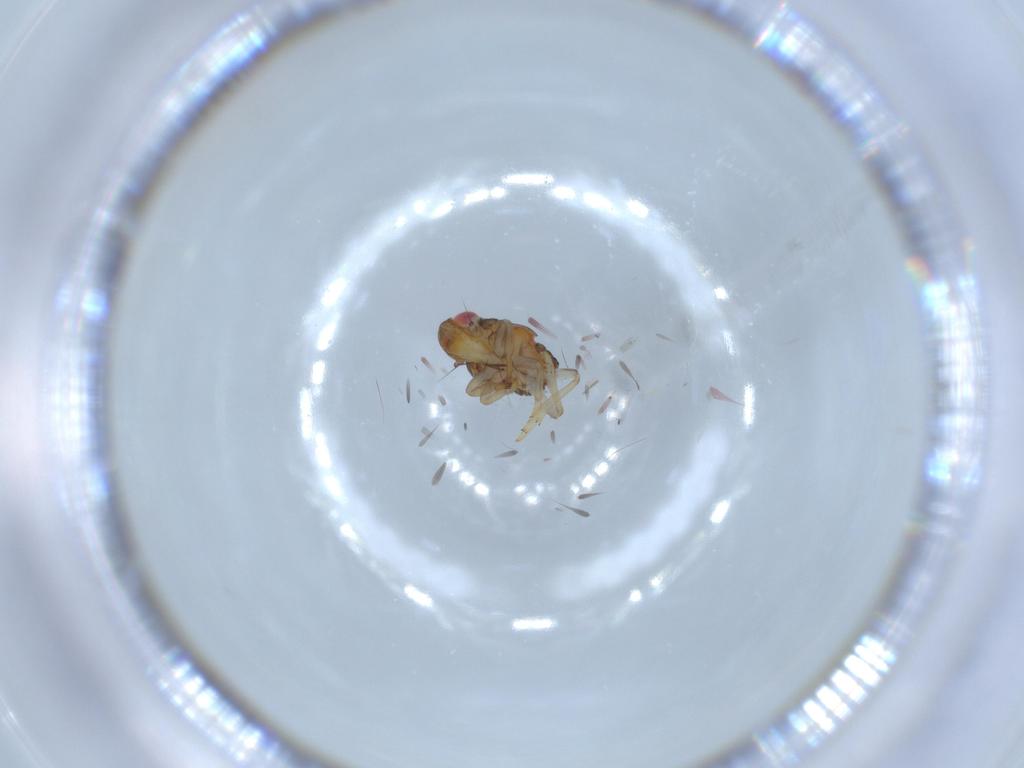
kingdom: Animalia
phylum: Arthropoda
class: Insecta
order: Hemiptera
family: Issidae
